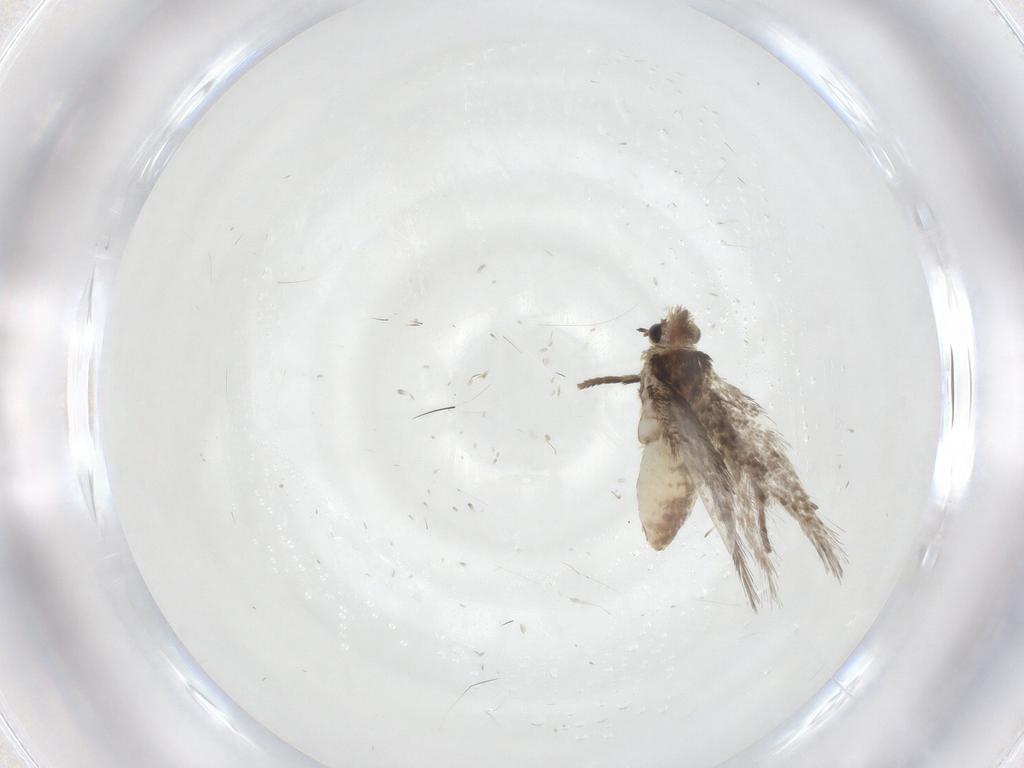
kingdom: Animalia
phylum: Arthropoda
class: Insecta
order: Lepidoptera
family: Nepticulidae
